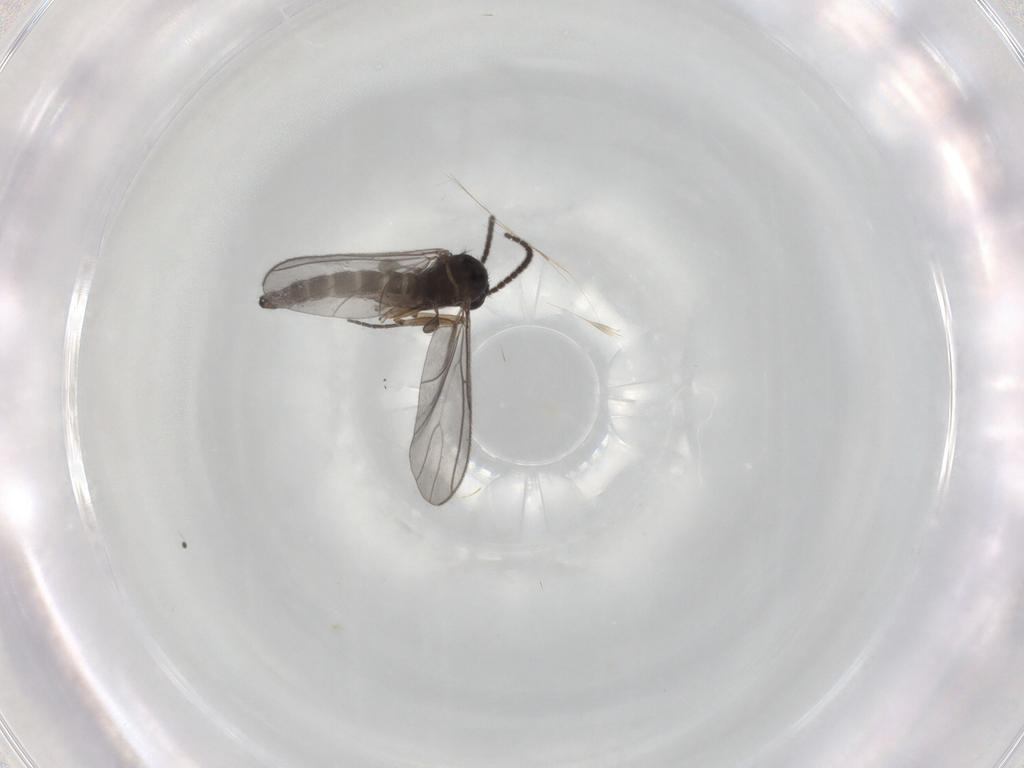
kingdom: Animalia
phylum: Arthropoda
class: Insecta
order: Diptera
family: Sciaridae
